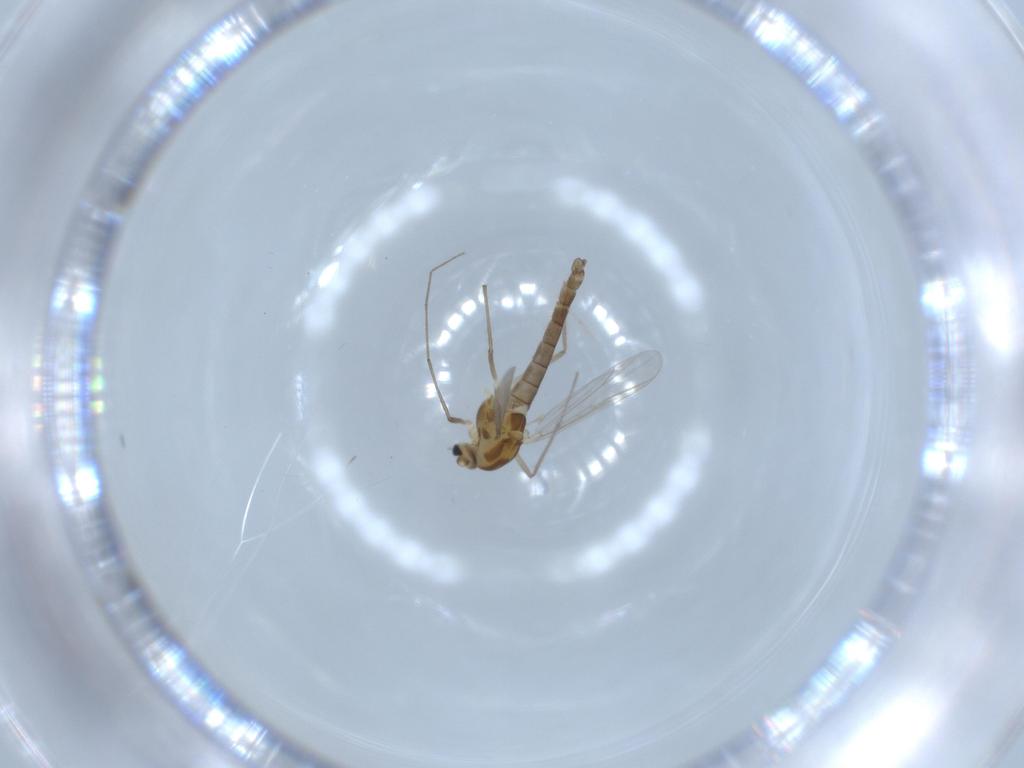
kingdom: Animalia
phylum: Arthropoda
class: Insecta
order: Diptera
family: Chironomidae
